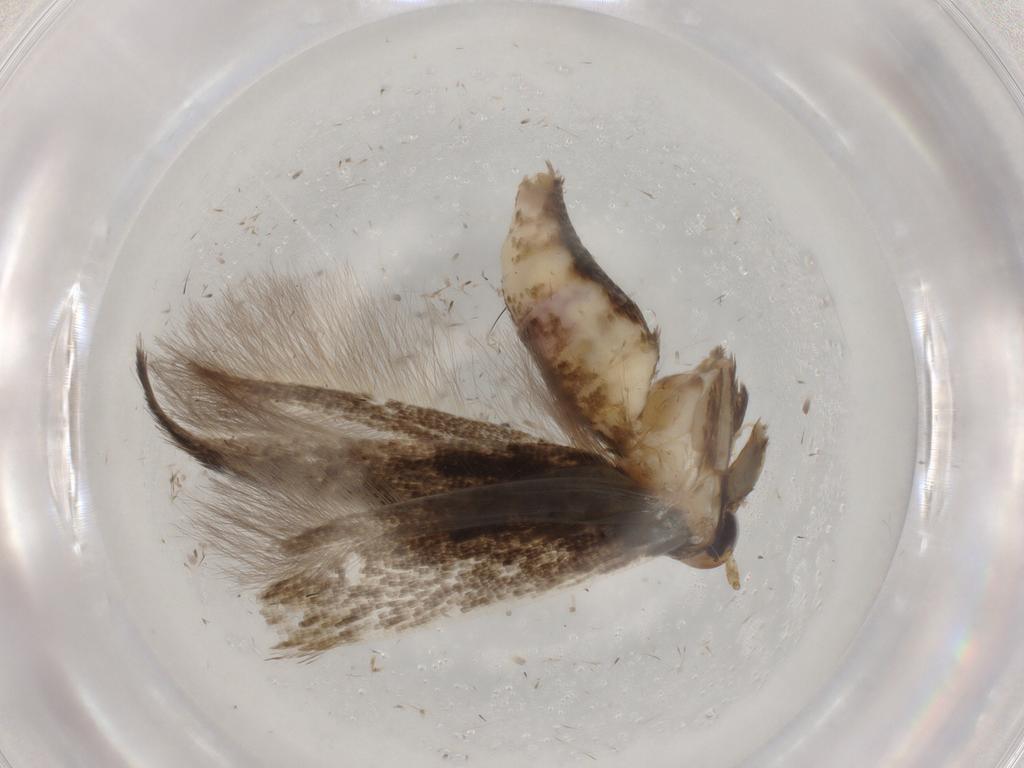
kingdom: Animalia
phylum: Arthropoda
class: Insecta
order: Lepidoptera
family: Cosmopterigidae
